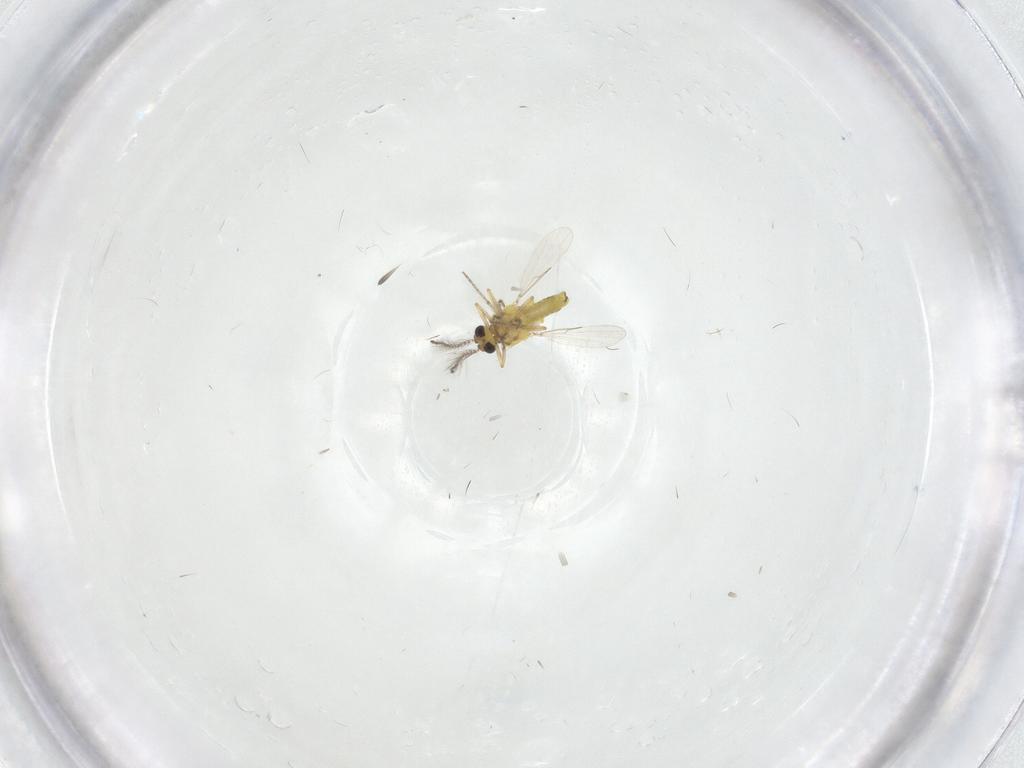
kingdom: Animalia
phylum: Arthropoda
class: Insecta
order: Diptera
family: Ceratopogonidae
